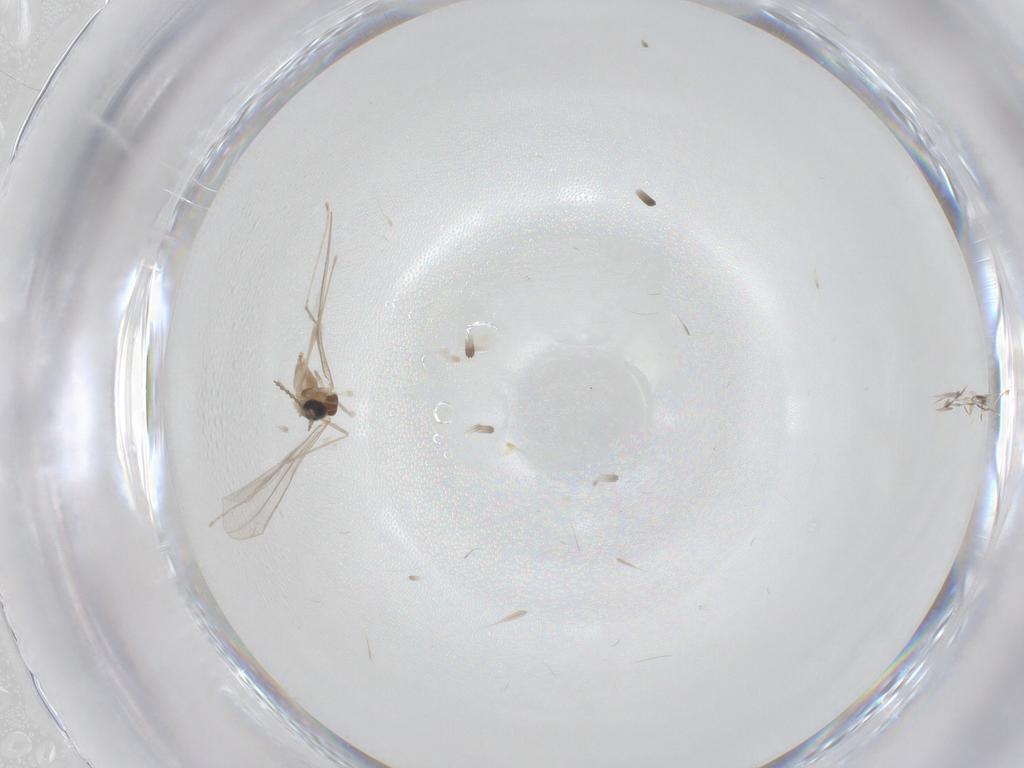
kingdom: Animalia
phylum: Arthropoda
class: Insecta
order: Diptera
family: Cecidomyiidae
